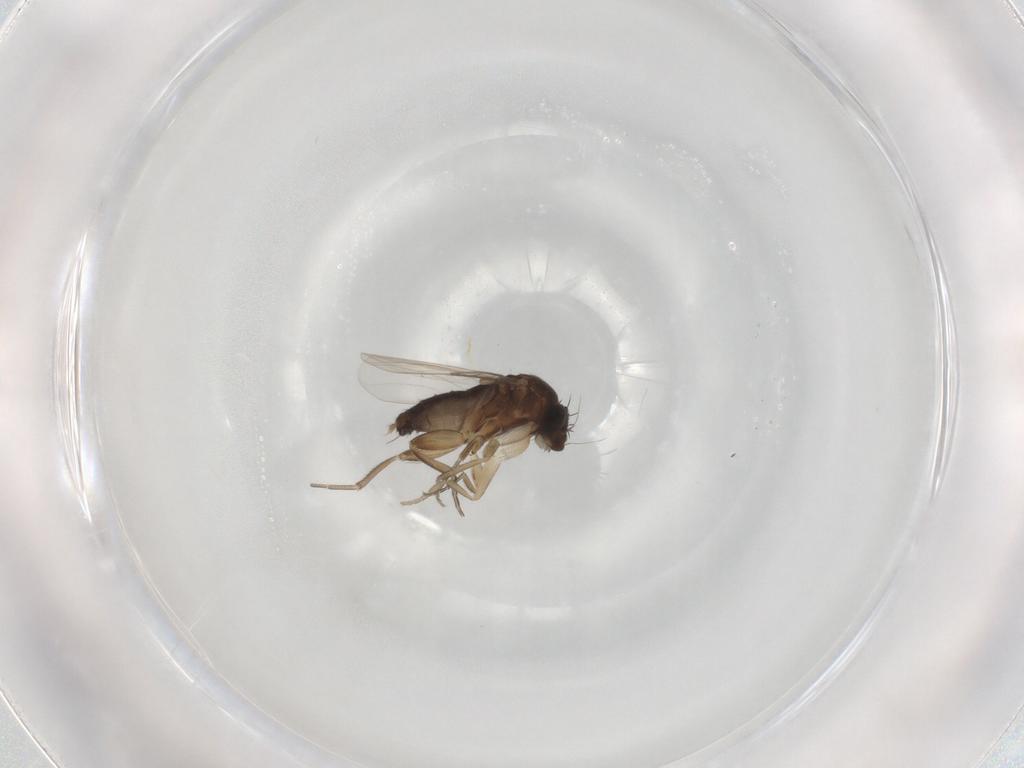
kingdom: Animalia
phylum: Arthropoda
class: Insecta
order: Diptera
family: Phoridae
